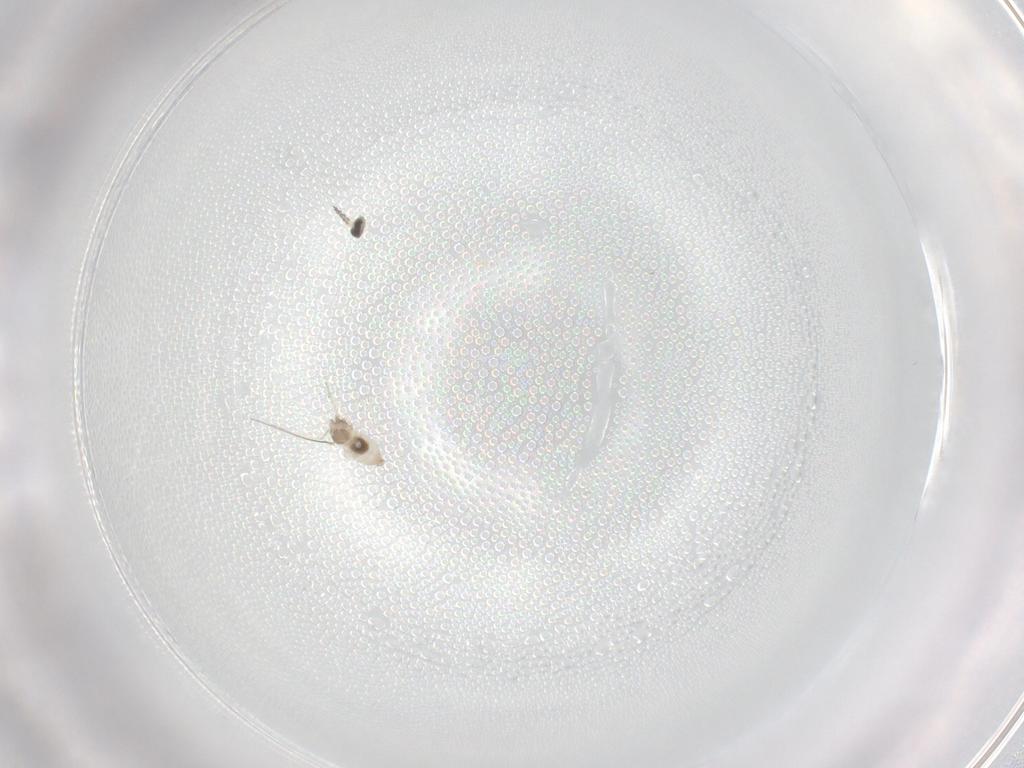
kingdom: Animalia
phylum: Arthropoda
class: Insecta
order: Diptera
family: Cecidomyiidae
